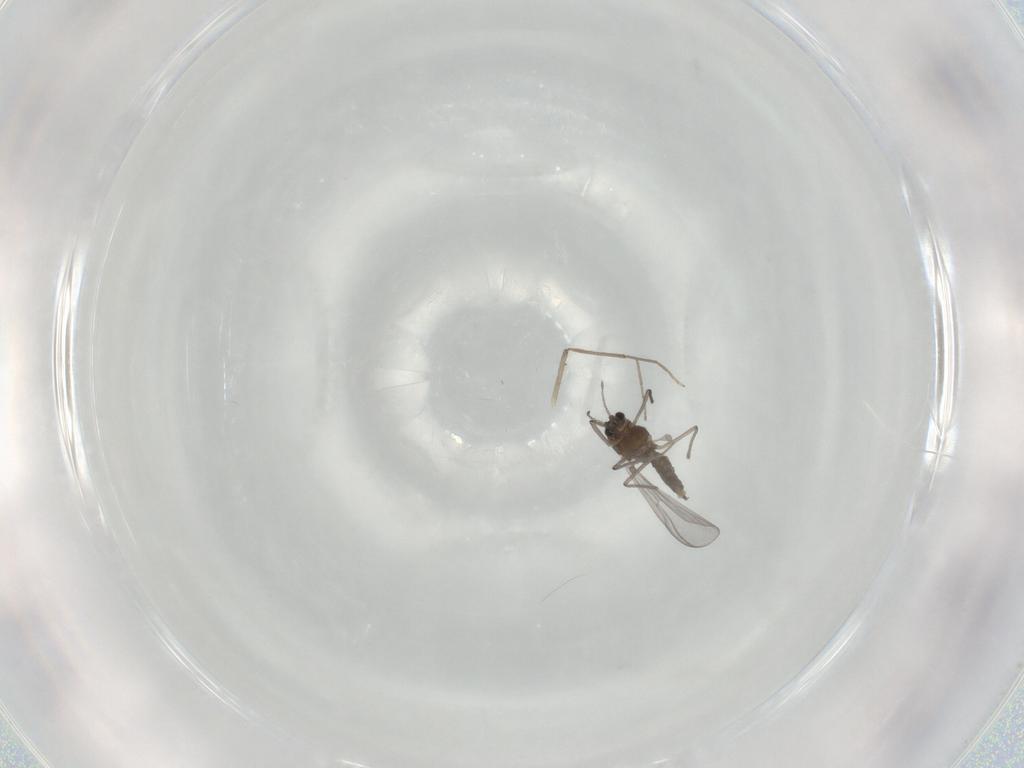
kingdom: Animalia
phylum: Arthropoda
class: Insecta
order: Diptera
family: Chironomidae
